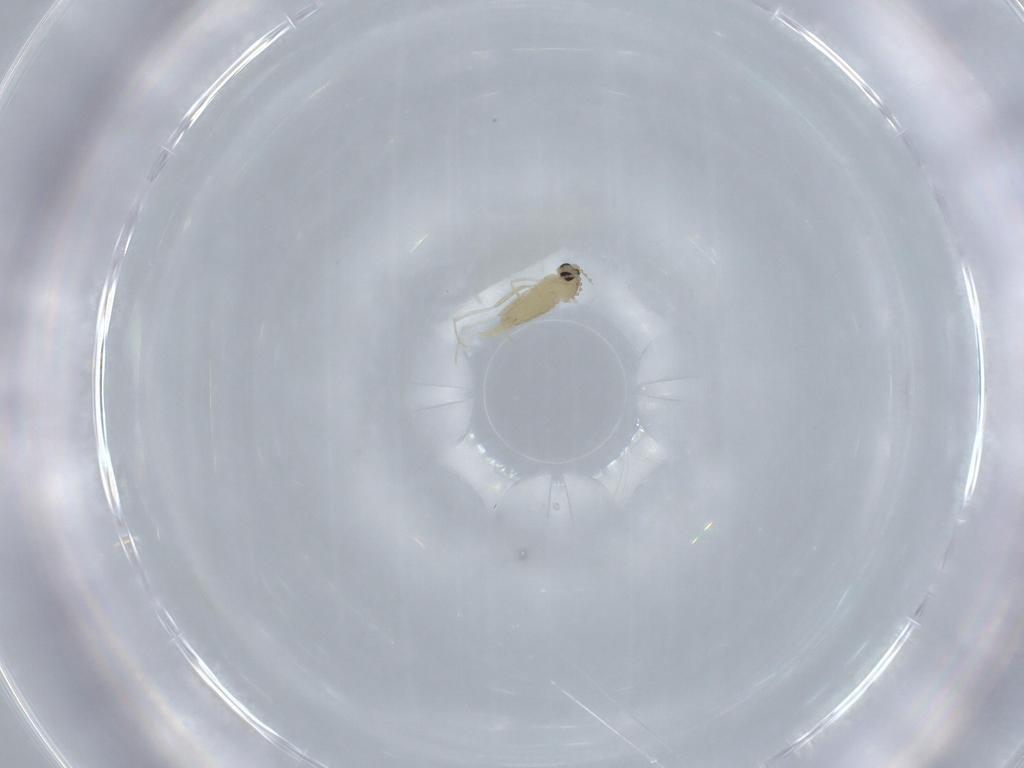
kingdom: Animalia
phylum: Arthropoda
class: Insecta
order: Diptera
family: Cecidomyiidae
